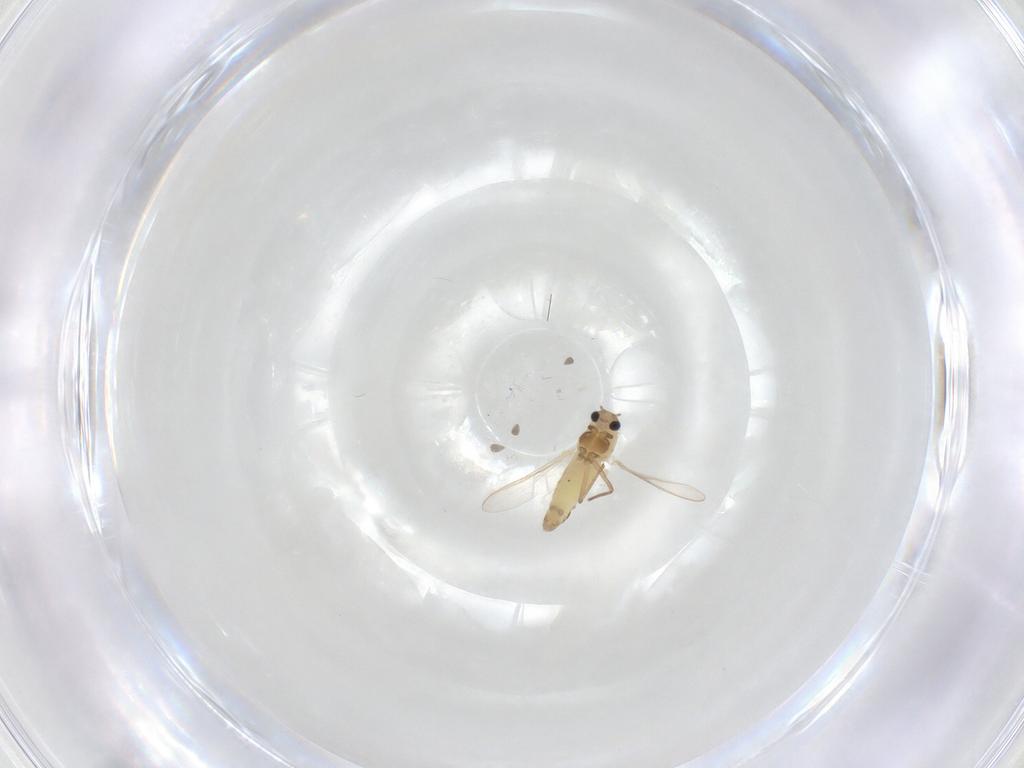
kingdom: Animalia
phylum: Arthropoda
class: Insecta
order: Diptera
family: Chironomidae
